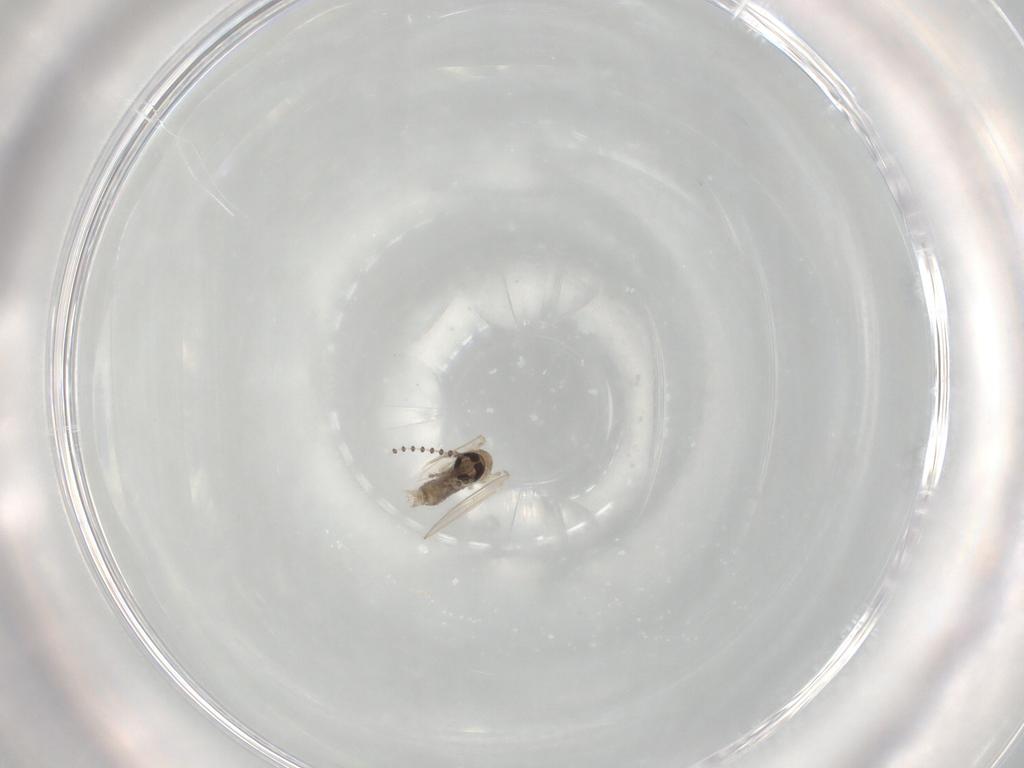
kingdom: Animalia
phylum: Arthropoda
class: Insecta
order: Diptera
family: Psychodidae
